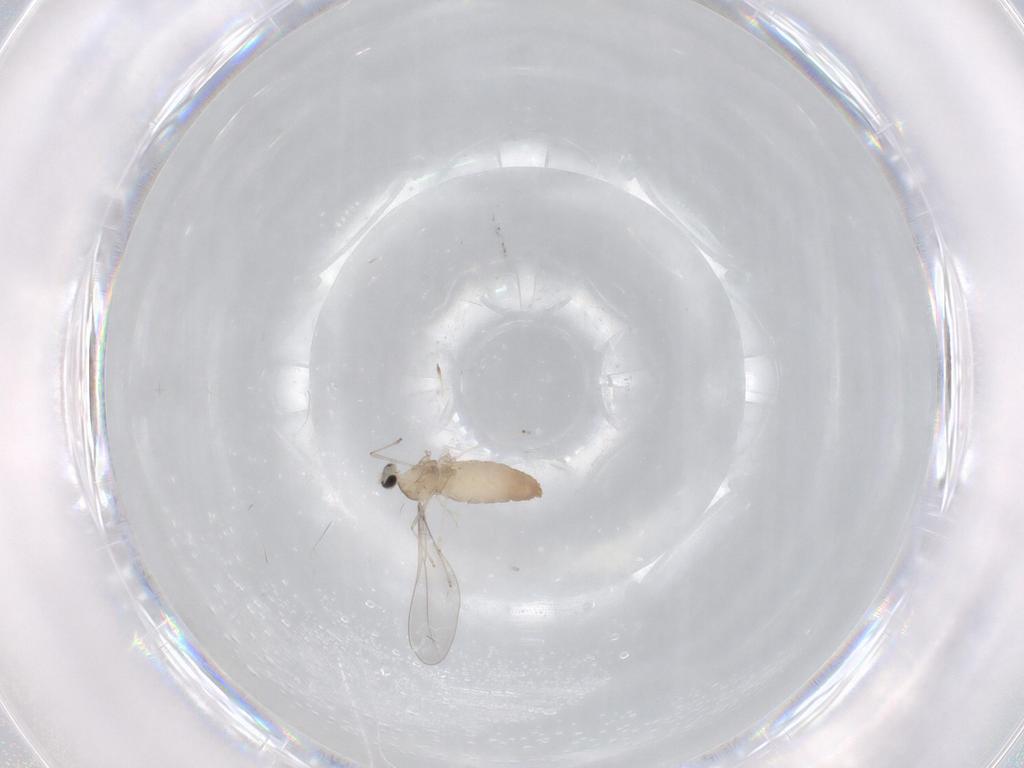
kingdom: Animalia
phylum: Arthropoda
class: Insecta
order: Diptera
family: Cecidomyiidae
